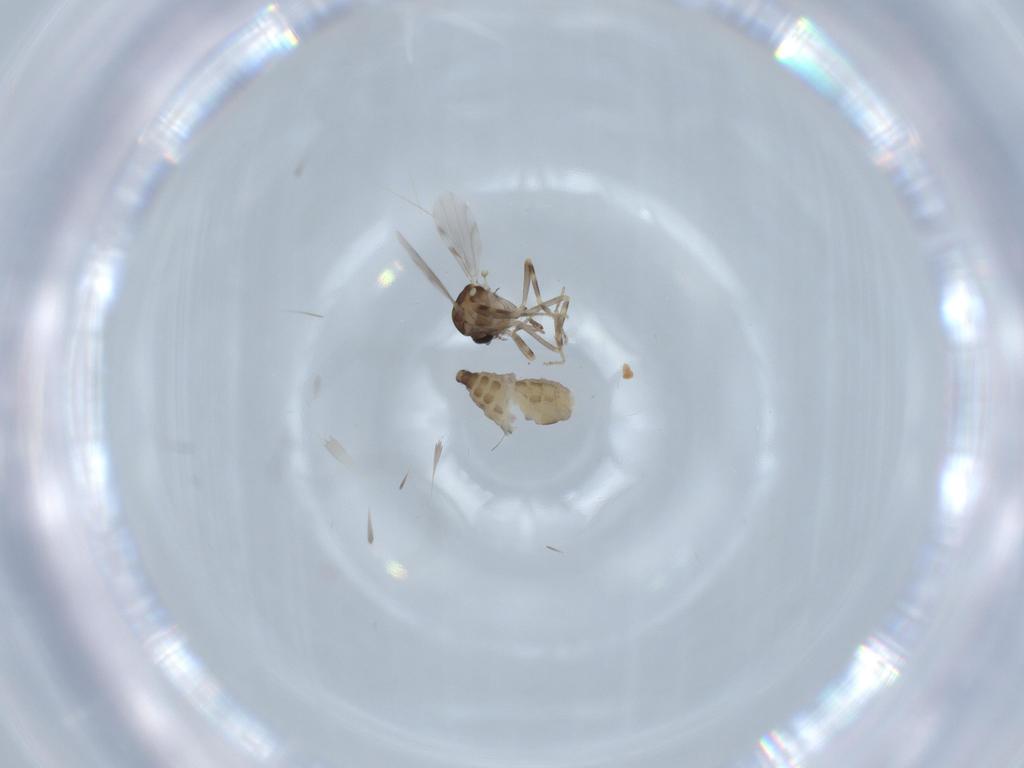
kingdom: Animalia
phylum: Arthropoda
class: Insecta
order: Diptera
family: Ceratopogonidae
